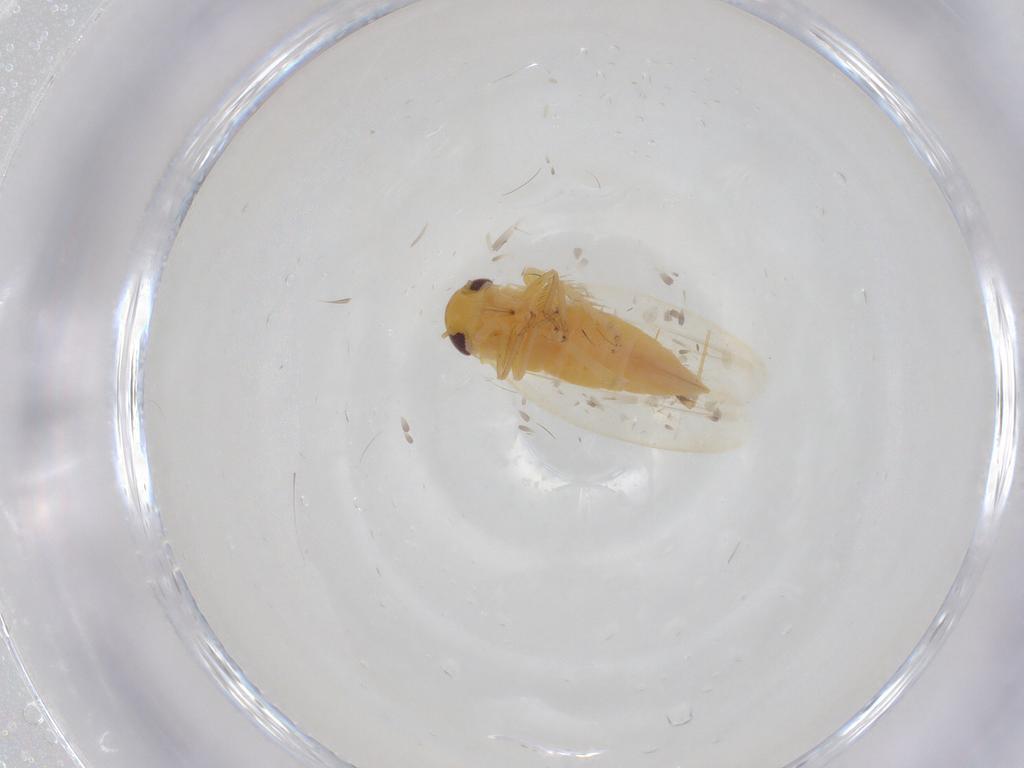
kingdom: Animalia
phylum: Arthropoda
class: Insecta
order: Hemiptera
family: Cicadellidae
